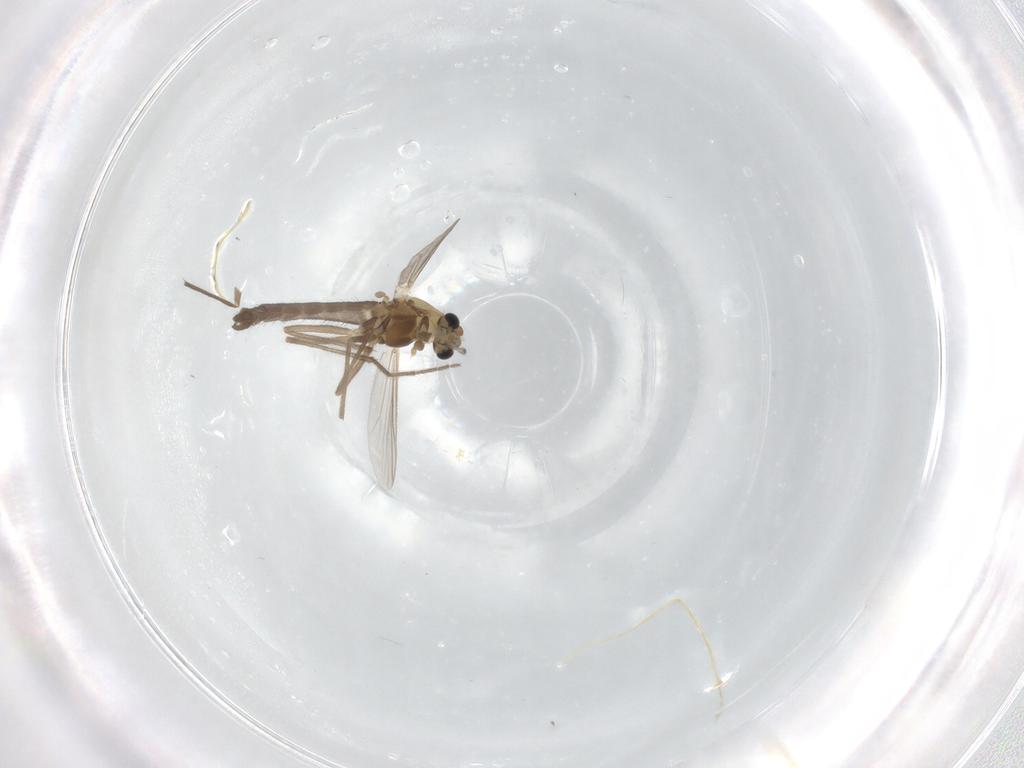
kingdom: Animalia
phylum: Arthropoda
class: Insecta
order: Diptera
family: Chironomidae
